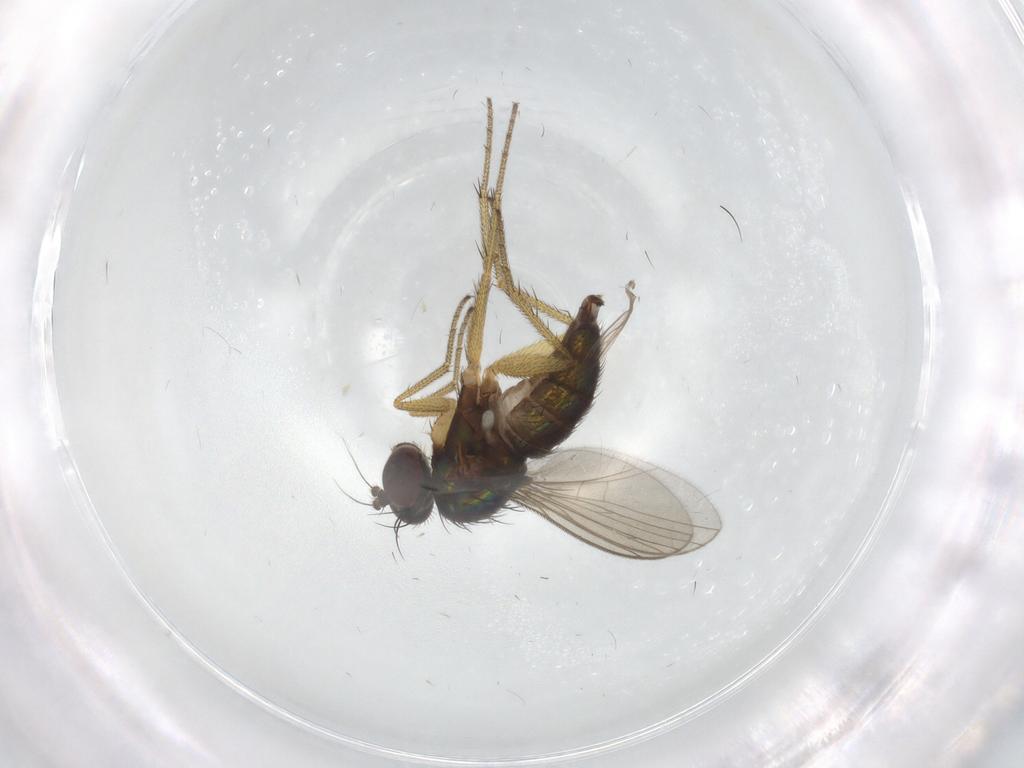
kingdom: Animalia
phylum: Arthropoda
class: Insecta
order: Diptera
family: Dolichopodidae
